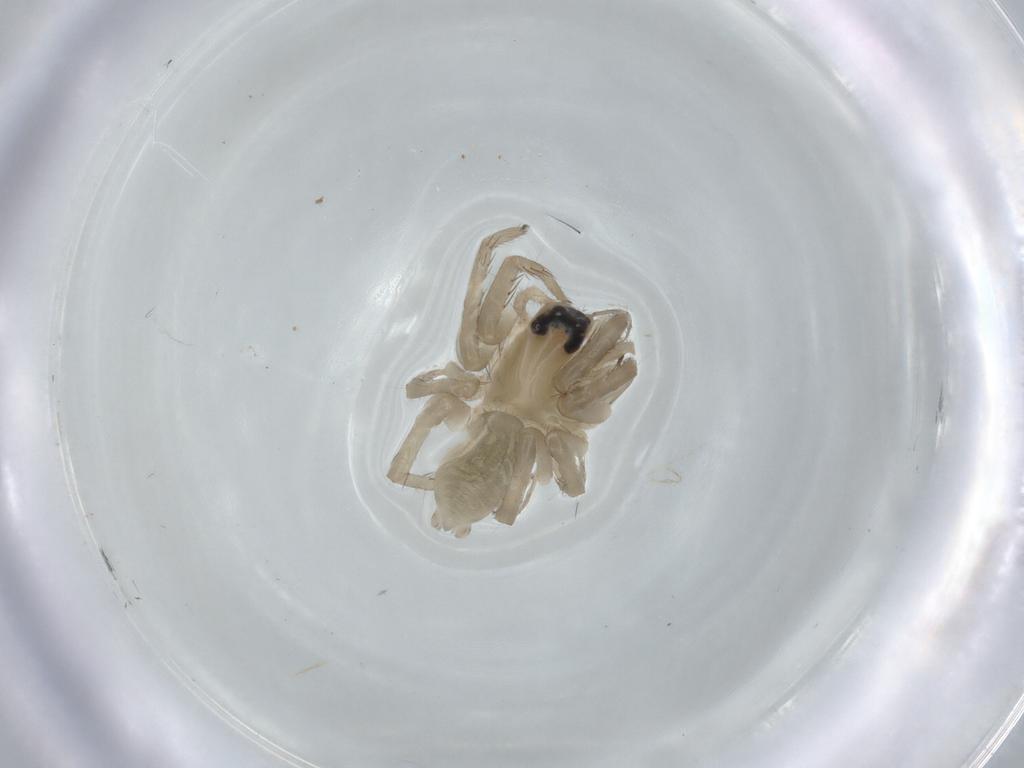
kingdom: Animalia
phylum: Arthropoda
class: Arachnida
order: Araneae
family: Lycosidae
